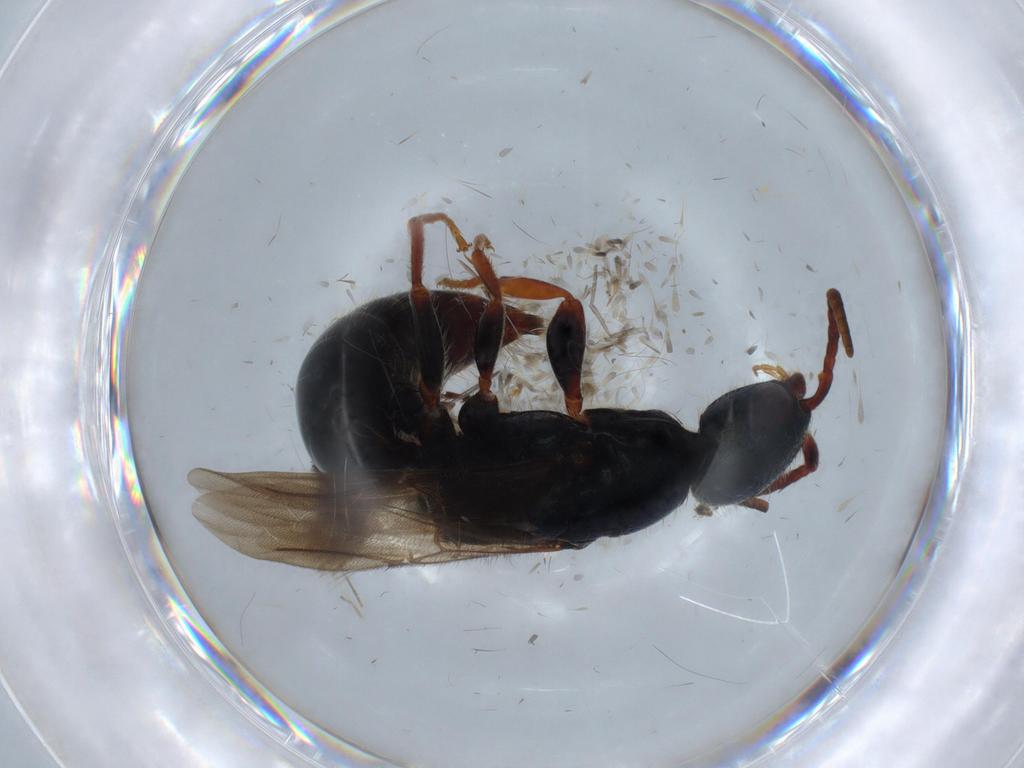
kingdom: Animalia
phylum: Arthropoda
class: Insecta
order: Hymenoptera
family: Bethylidae
